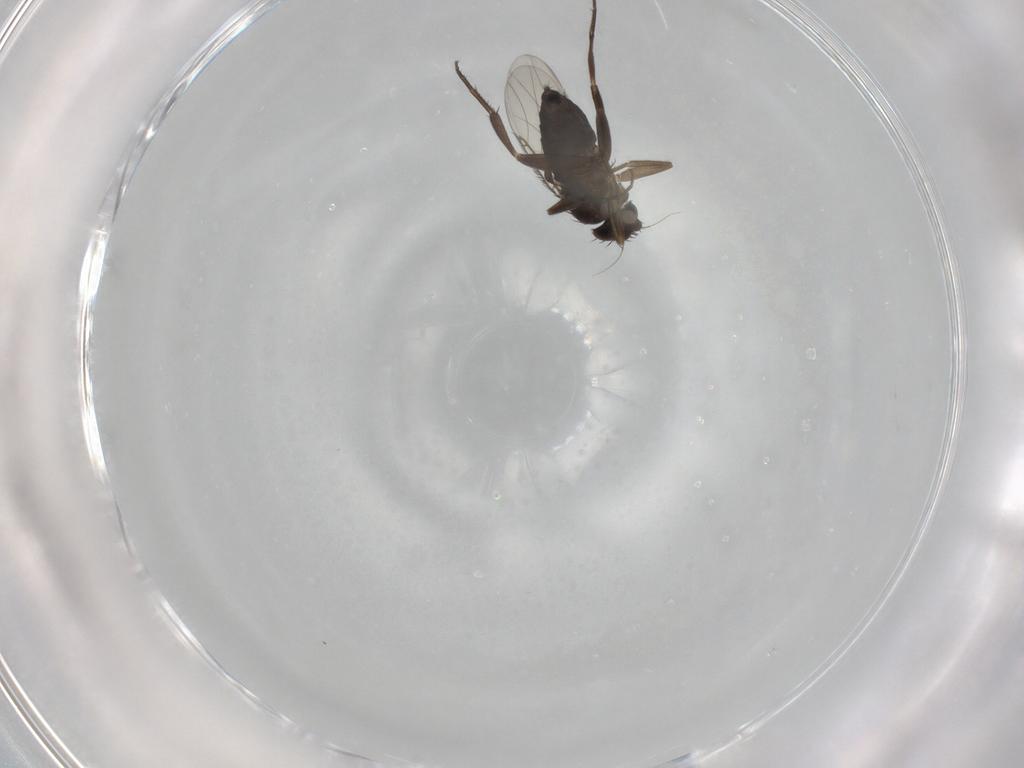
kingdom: Animalia
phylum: Arthropoda
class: Insecta
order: Diptera
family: Phoridae
